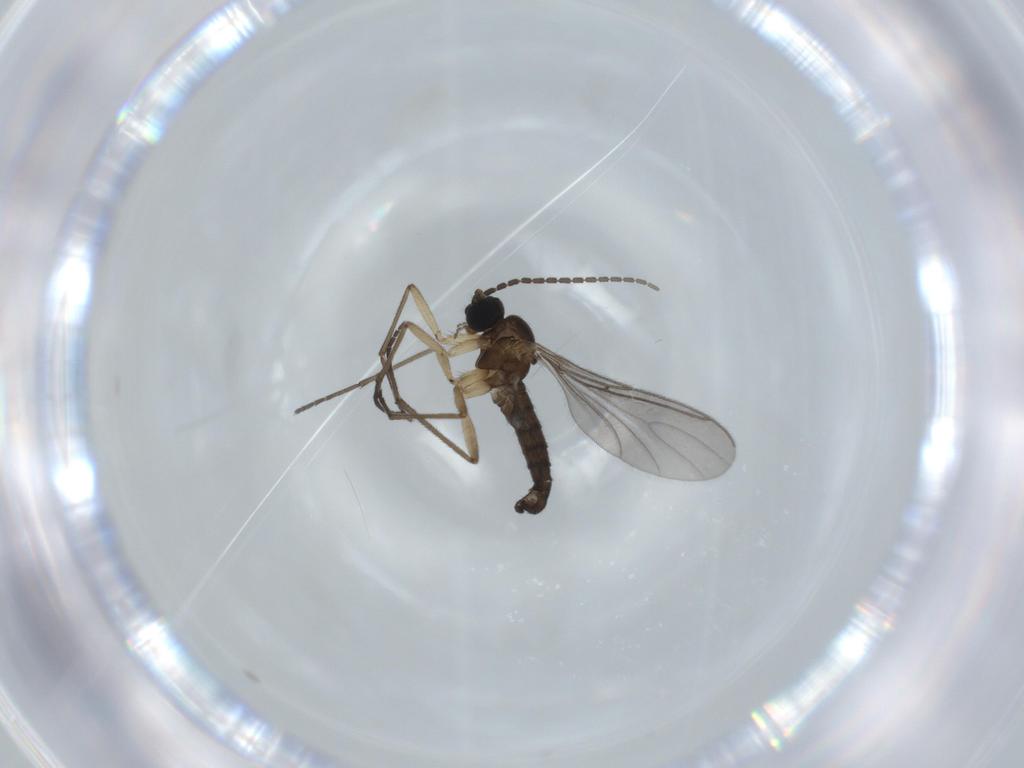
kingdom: Animalia
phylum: Arthropoda
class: Insecta
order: Diptera
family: Sciaridae
